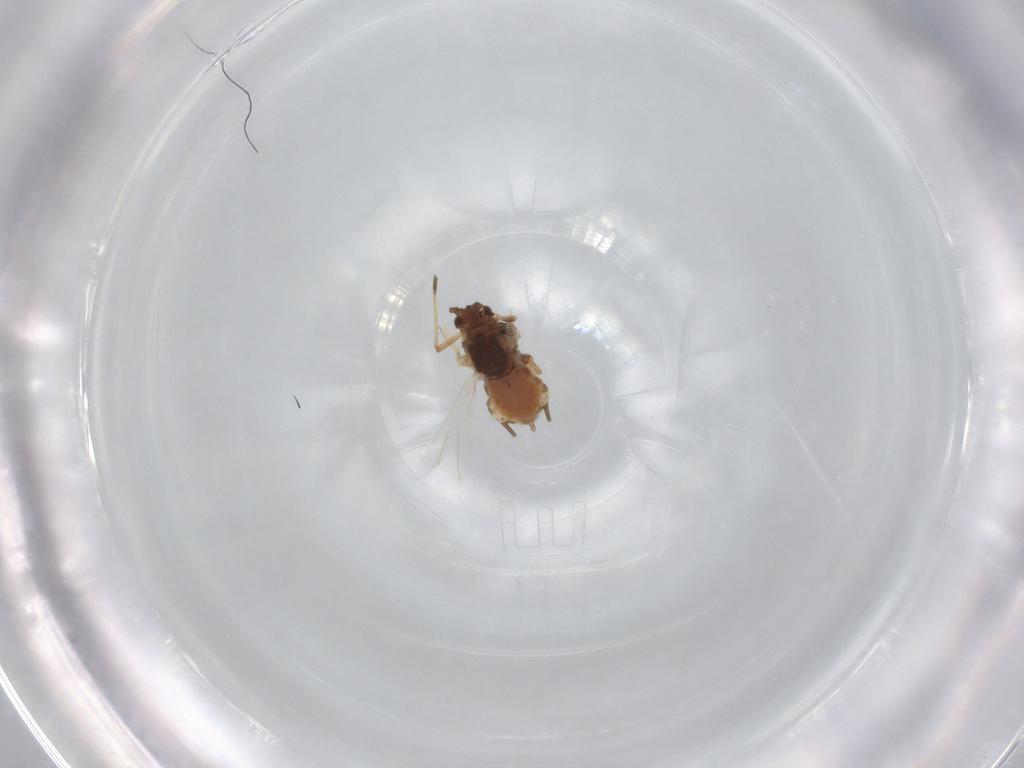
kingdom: Animalia
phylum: Arthropoda
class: Insecta
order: Hemiptera
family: Aphididae
